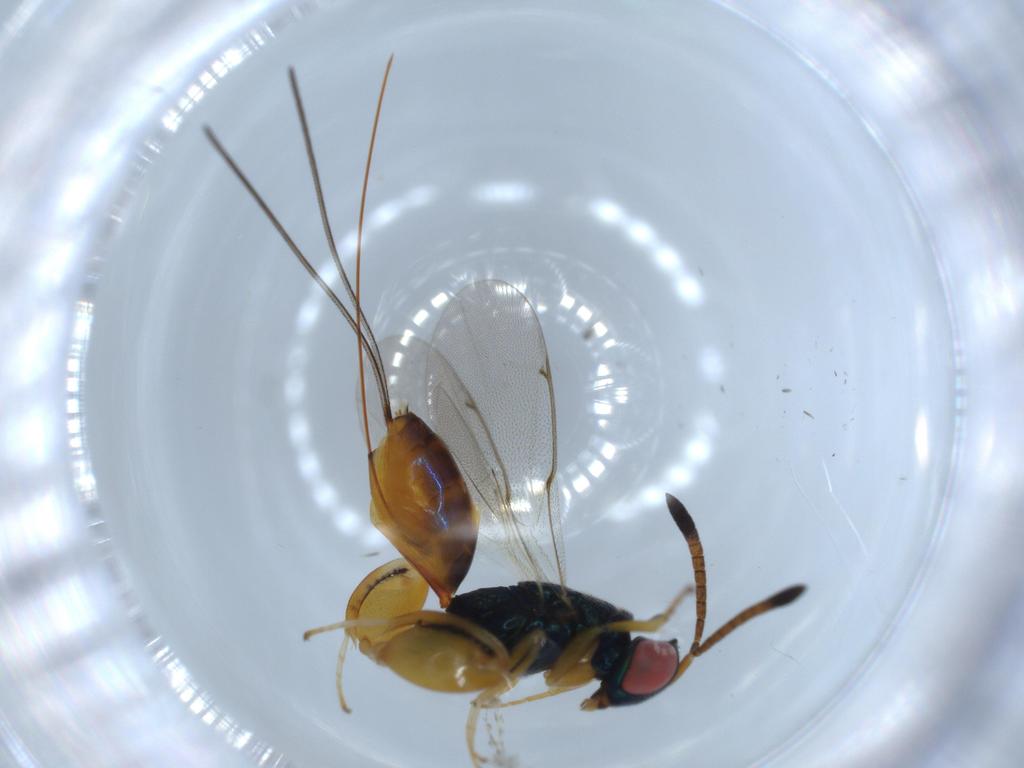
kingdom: Animalia
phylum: Arthropoda
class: Insecta
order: Hymenoptera
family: Torymidae
